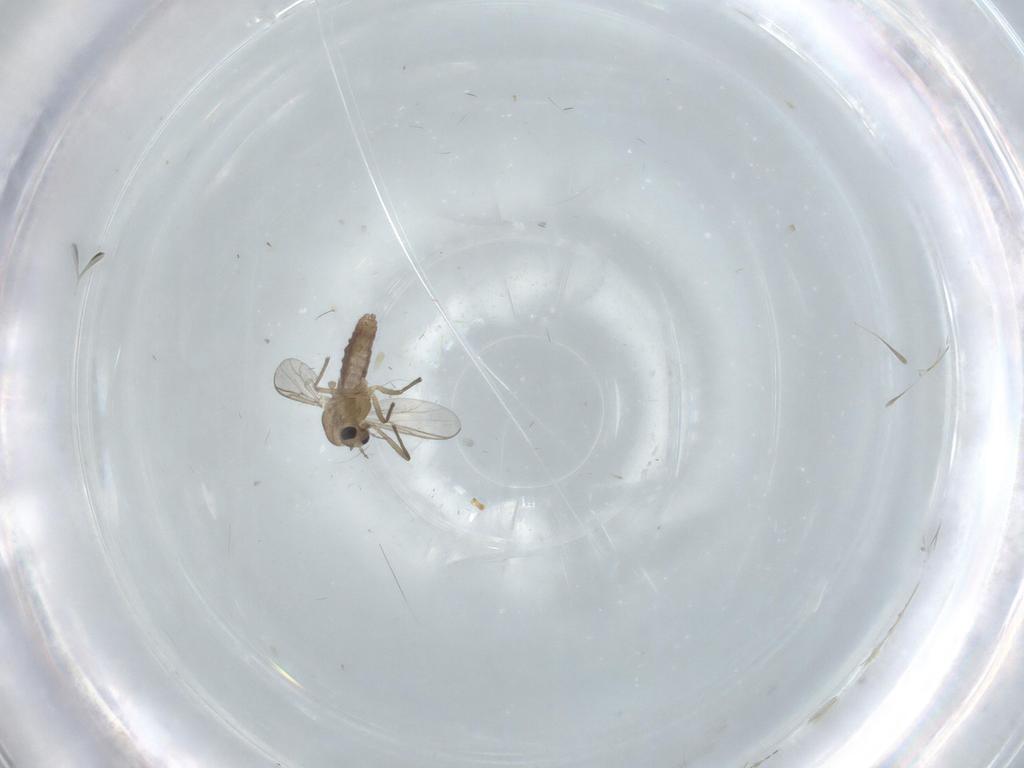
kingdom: Animalia
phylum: Arthropoda
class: Insecta
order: Diptera
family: Chironomidae
